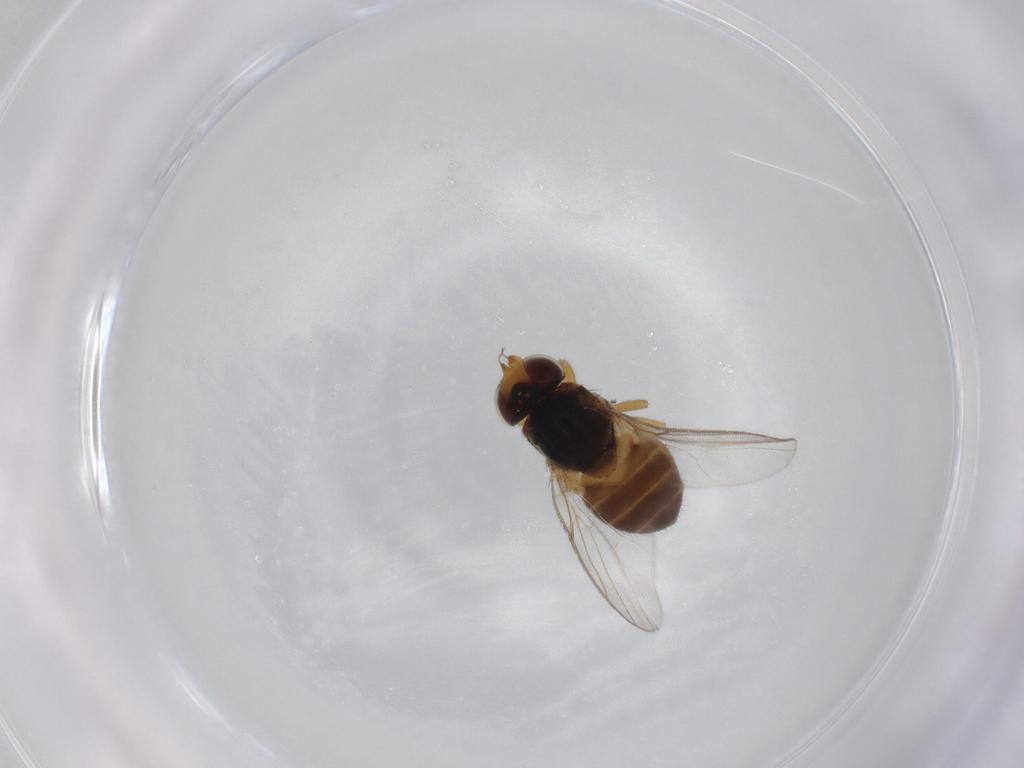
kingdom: Animalia
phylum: Arthropoda
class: Insecta
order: Diptera
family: Chloropidae
